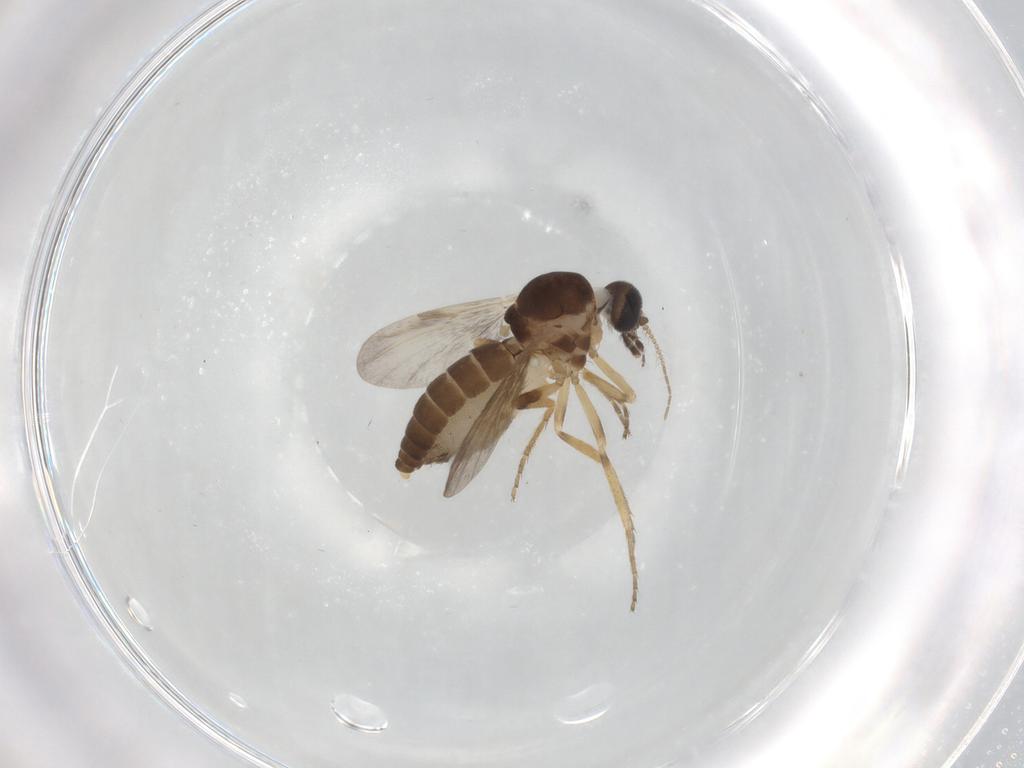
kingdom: Animalia
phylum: Arthropoda
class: Insecta
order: Diptera
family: Ceratopogonidae
